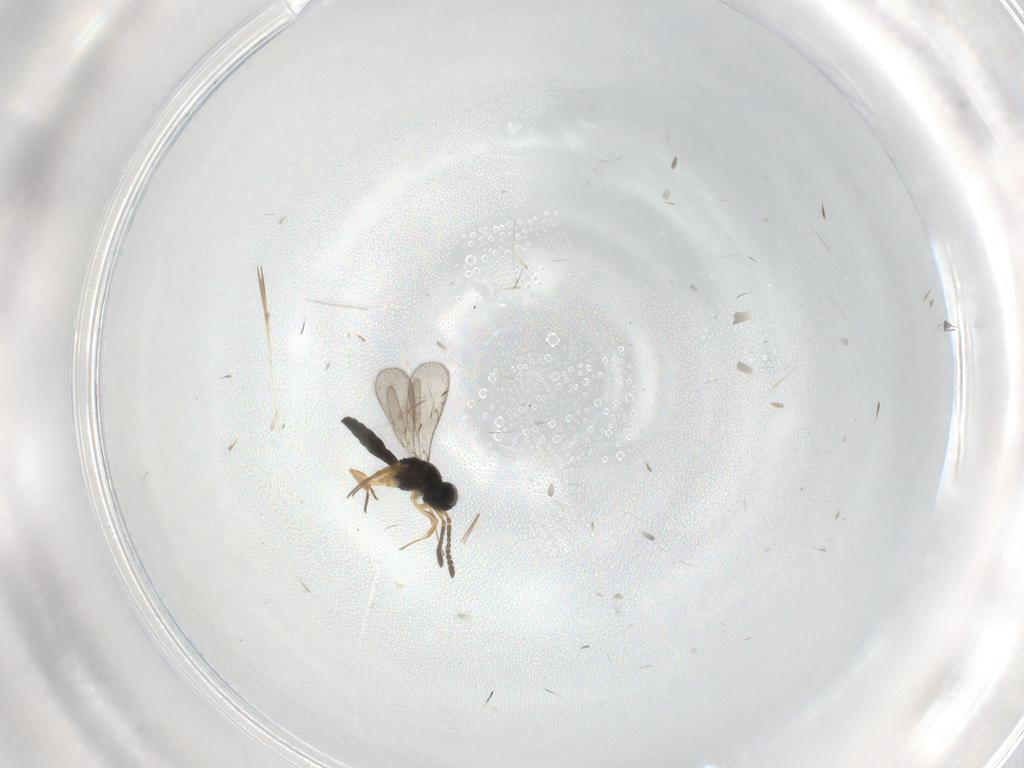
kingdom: Animalia
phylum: Arthropoda
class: Insecta
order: Hymenoptera
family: Scelionidae
